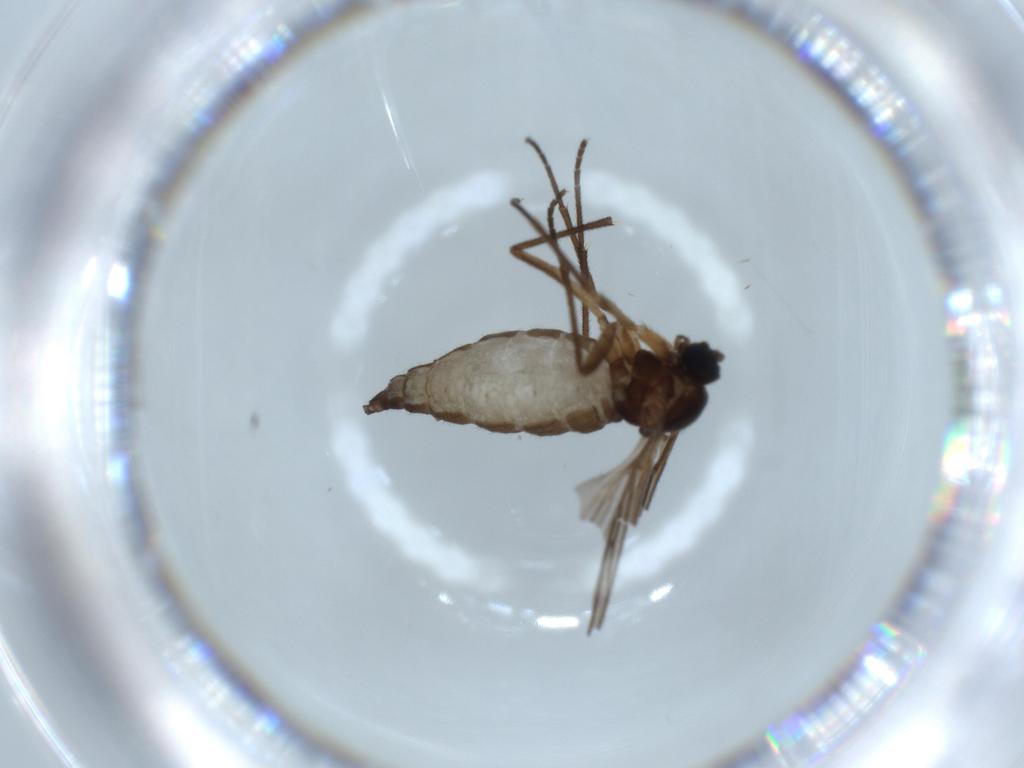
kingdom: Animalia
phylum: Arthropoda
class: Insecta
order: Diptera
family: Sciaridae
